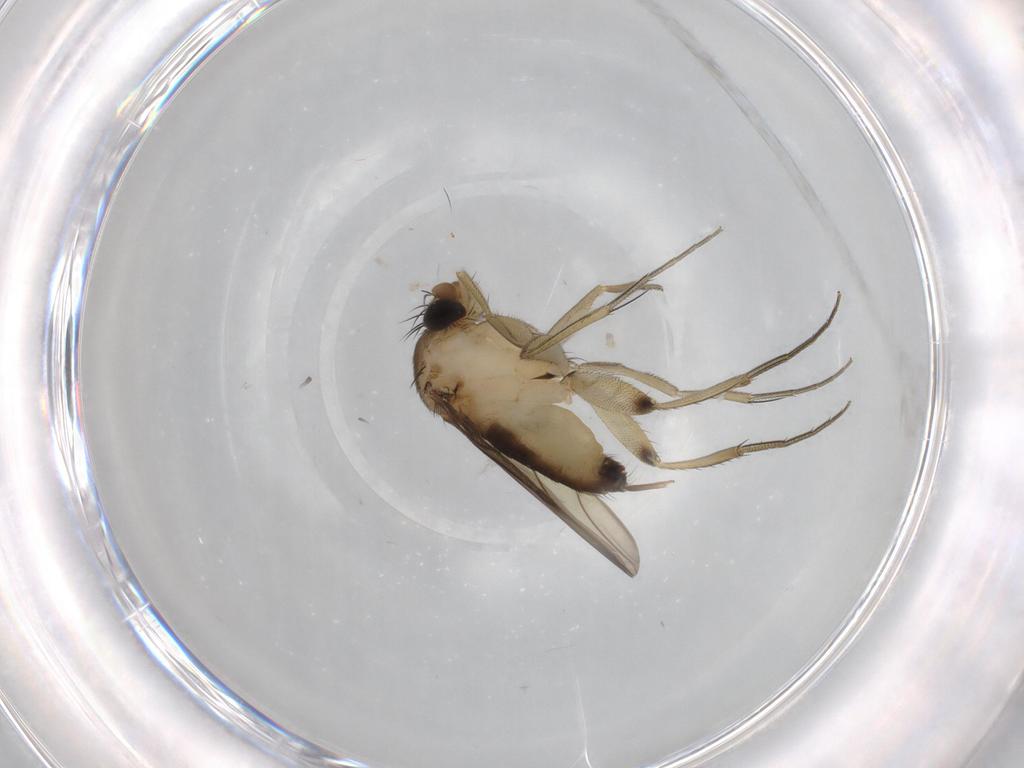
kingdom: Animalia
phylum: Arthropoda
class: Insecta
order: Diptera
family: Phoridae
